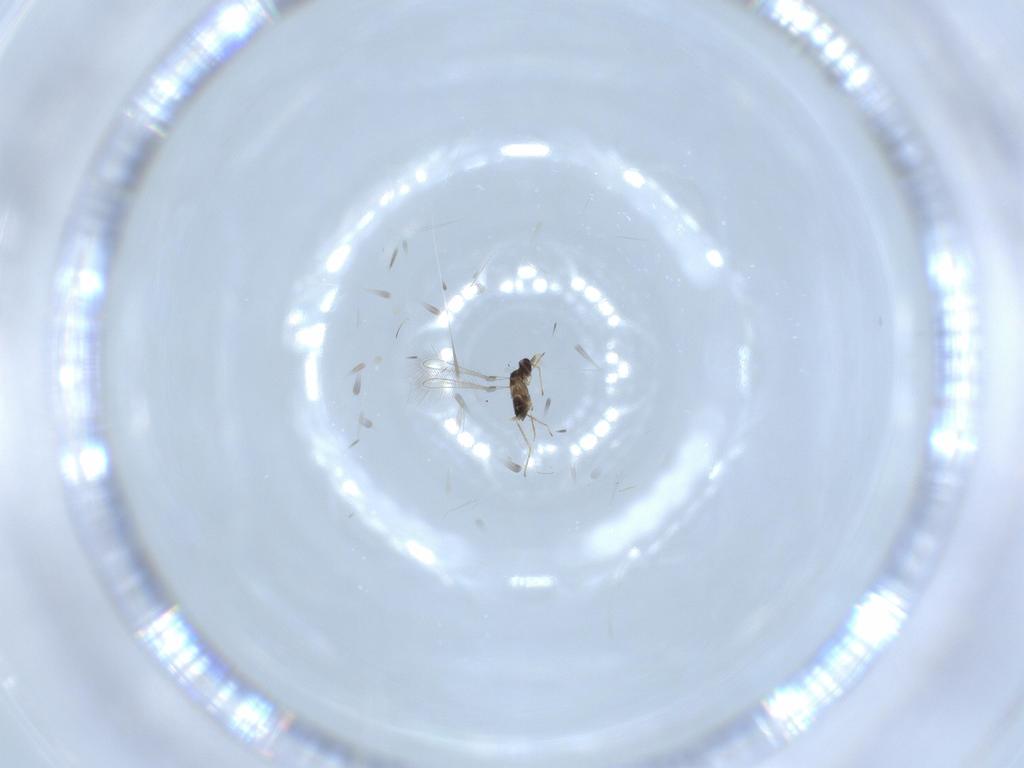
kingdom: Animalia
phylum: Arthropoda
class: Insecta
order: Hymenoptera
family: Mymaridae
